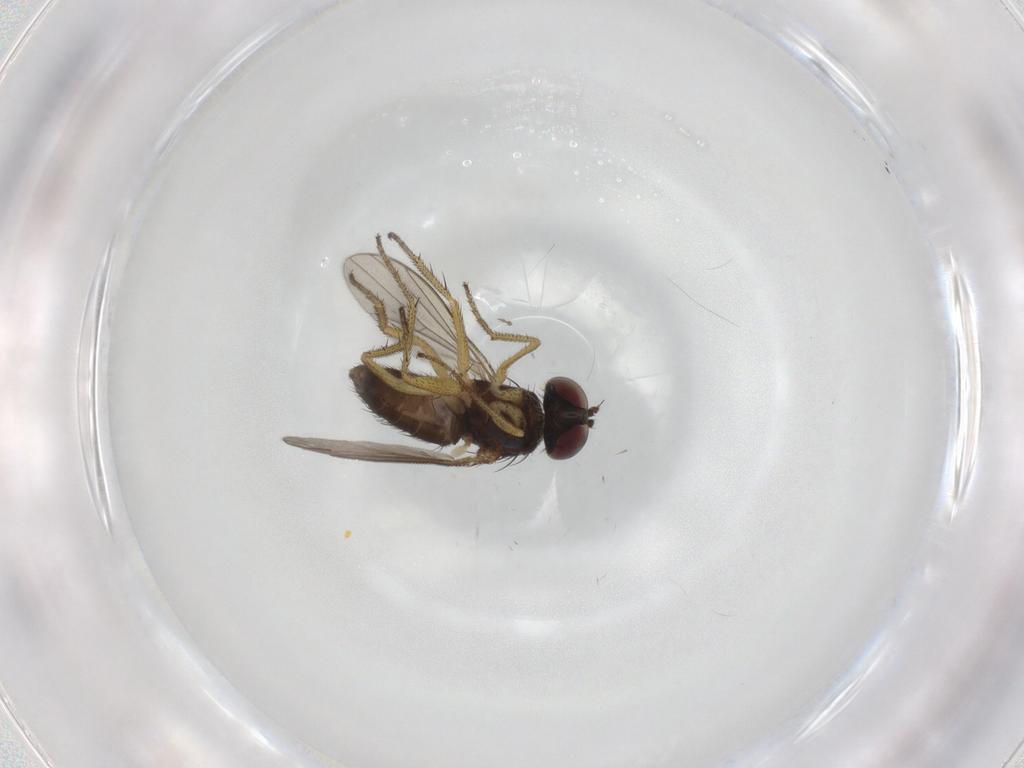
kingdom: Animalia
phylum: Arthropoda
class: Insecta
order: Diptera
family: Dolichopodidae
